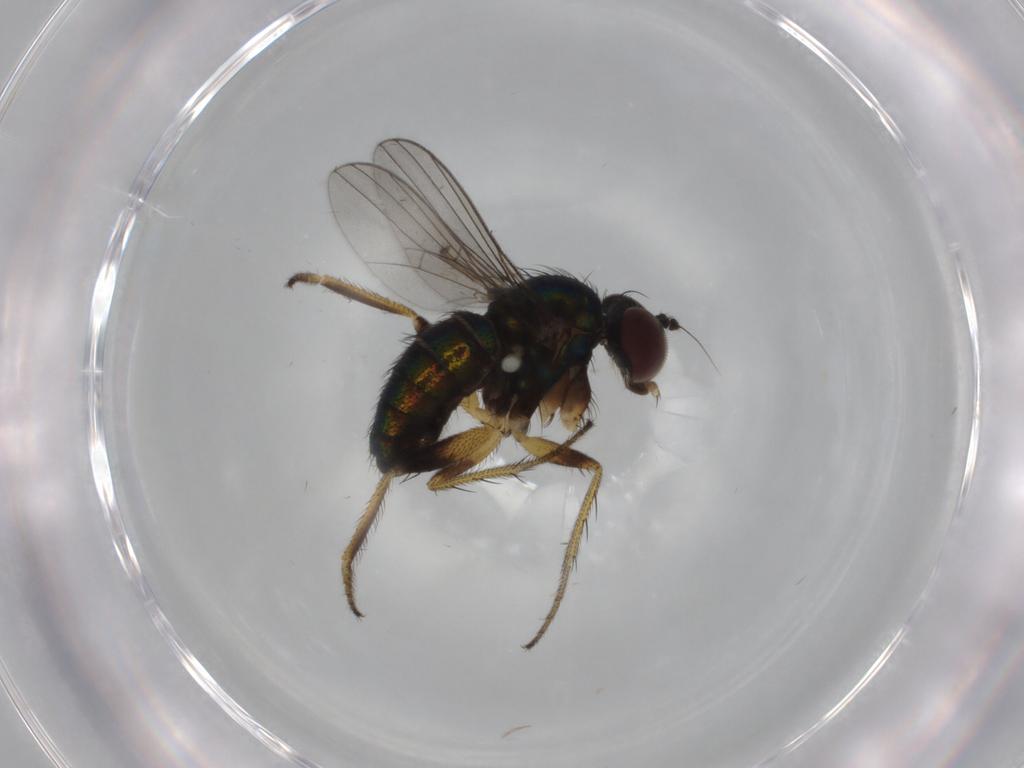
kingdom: Animalia
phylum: Arthropoda
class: Insecta
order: Diptera
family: Dolichopodidae
